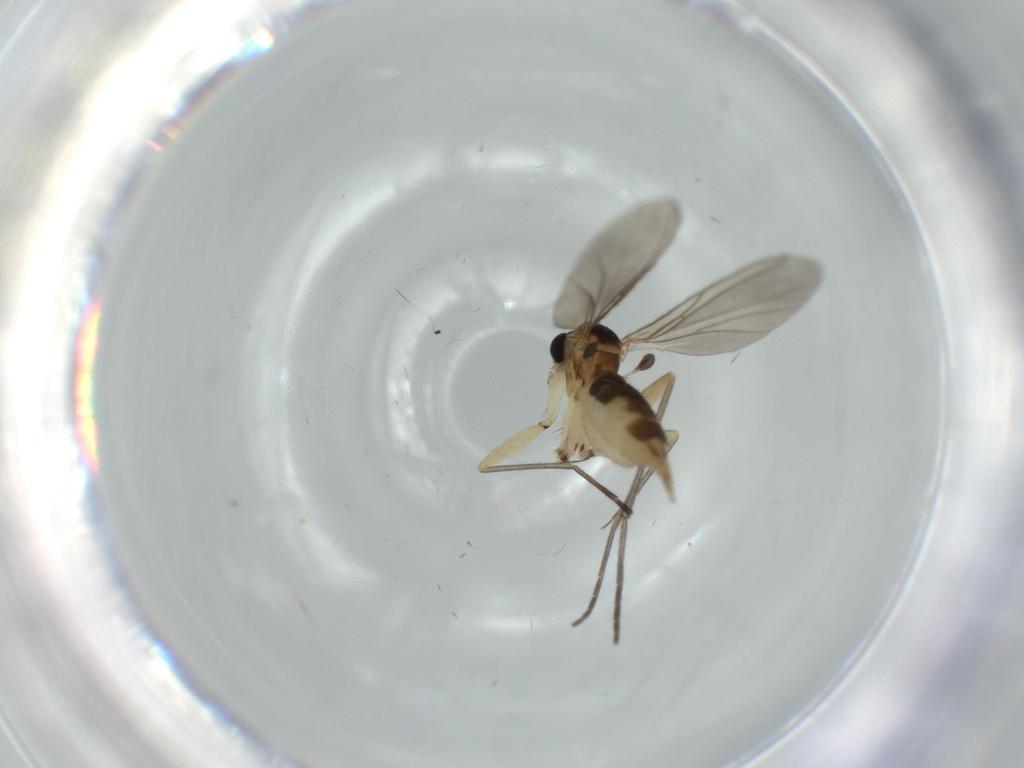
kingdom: Animalia
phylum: Arthropoda
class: Insecta
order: Diptera
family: Sciaridae
